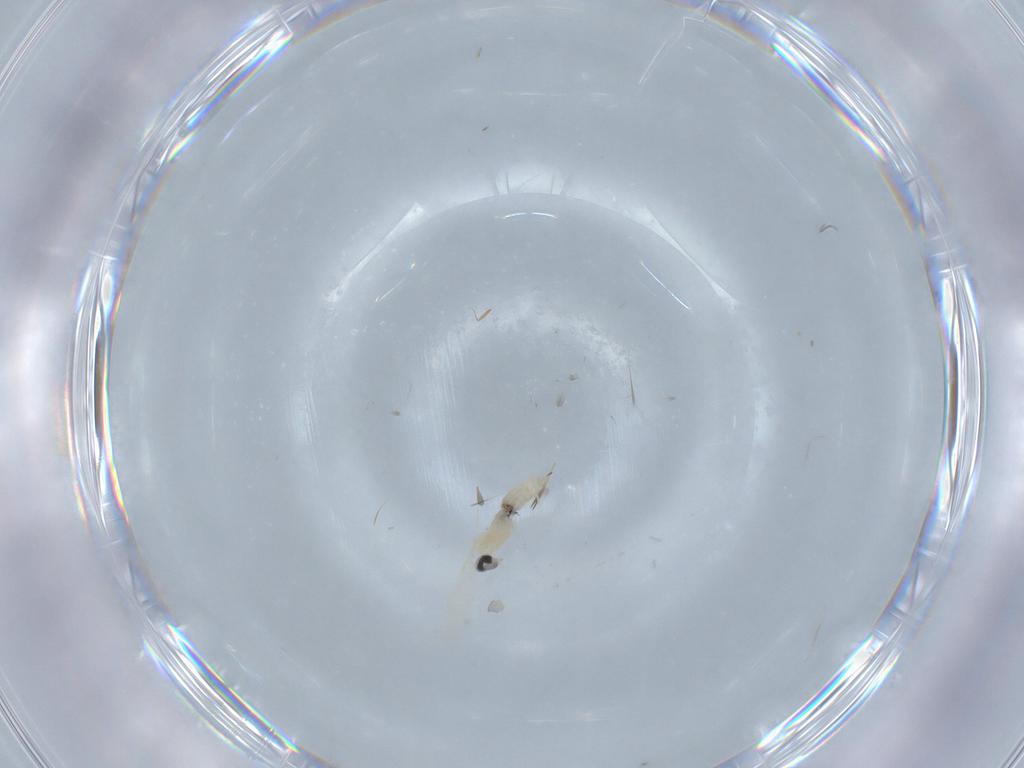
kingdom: Animalia
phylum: Arthropoda
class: Insecta
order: Diptera
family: Cecidomyiidae
